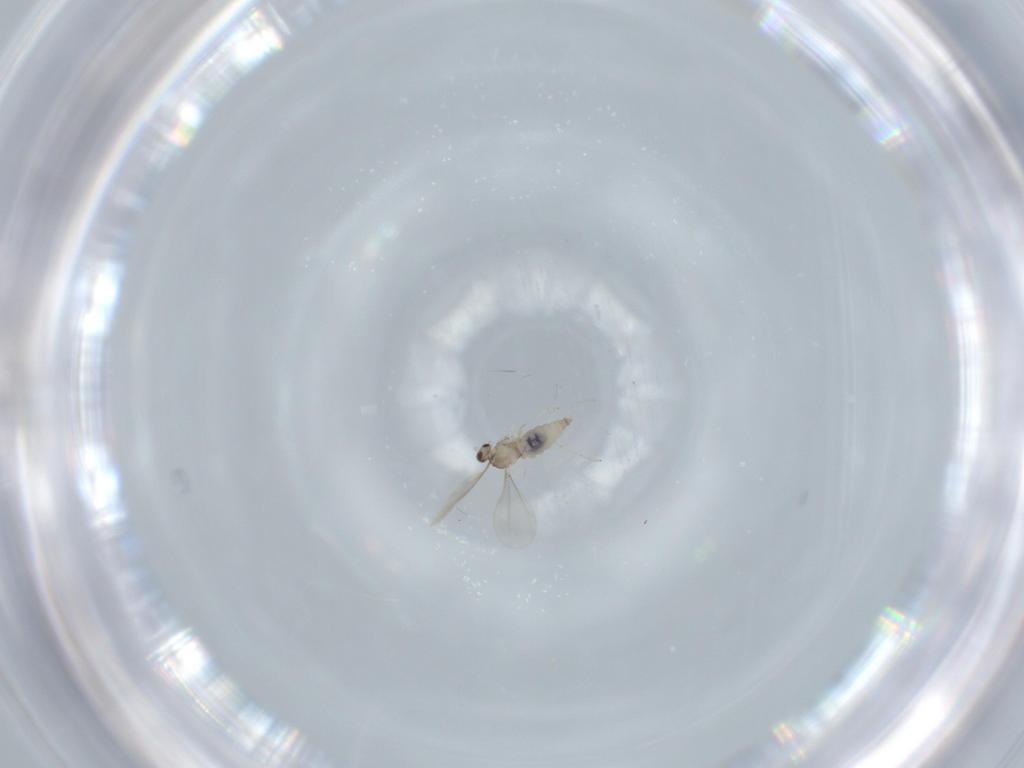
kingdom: Animalia
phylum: Arthropoda
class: Insecta
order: Diptera
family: Cecidomyiidae
